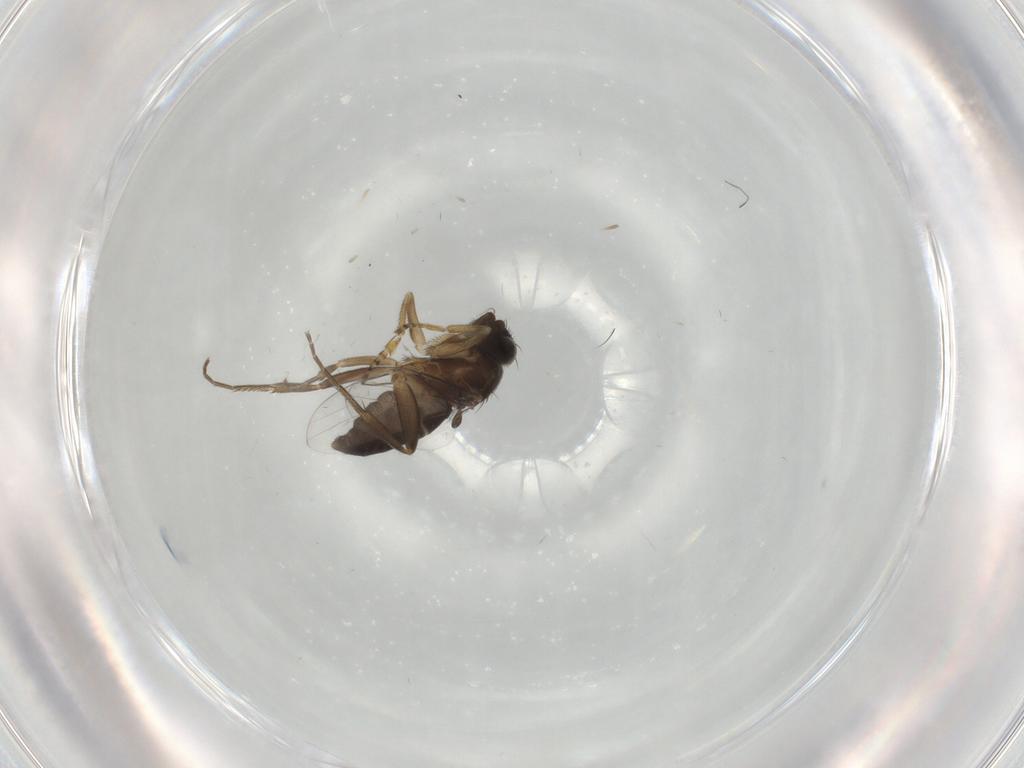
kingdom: Animalia
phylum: Arthropoda
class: Insecta
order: Diptera
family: Phoridae
